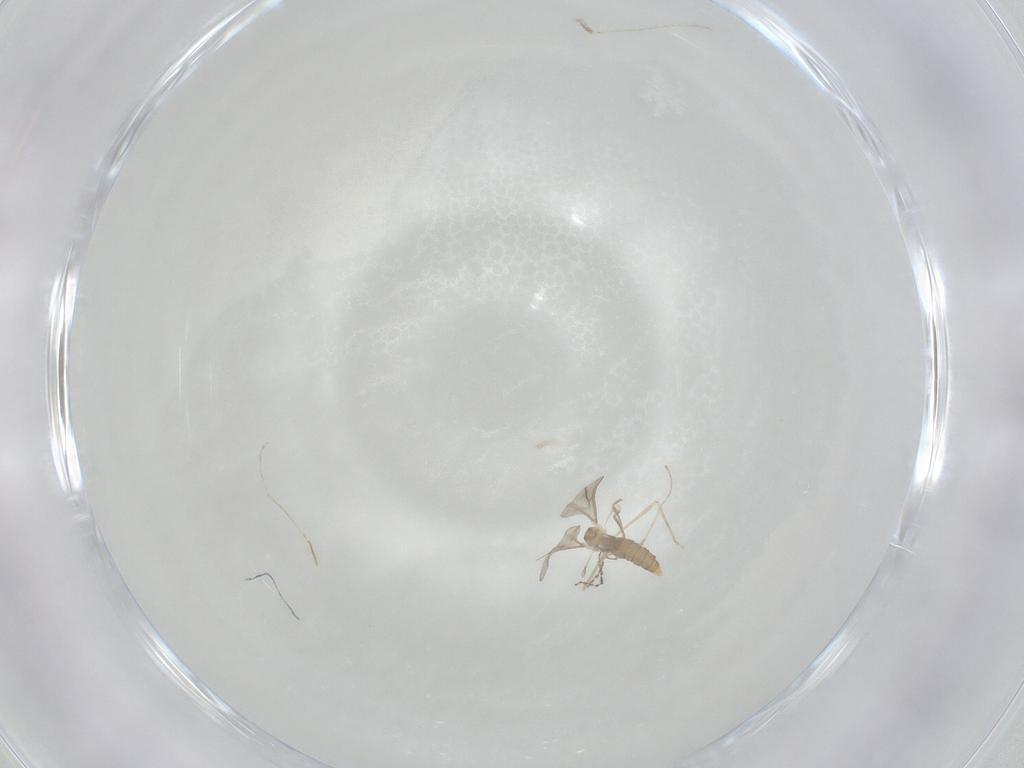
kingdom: Animalia
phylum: Arthropoda
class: Insecta
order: Diptera
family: Cecidomyiidae
